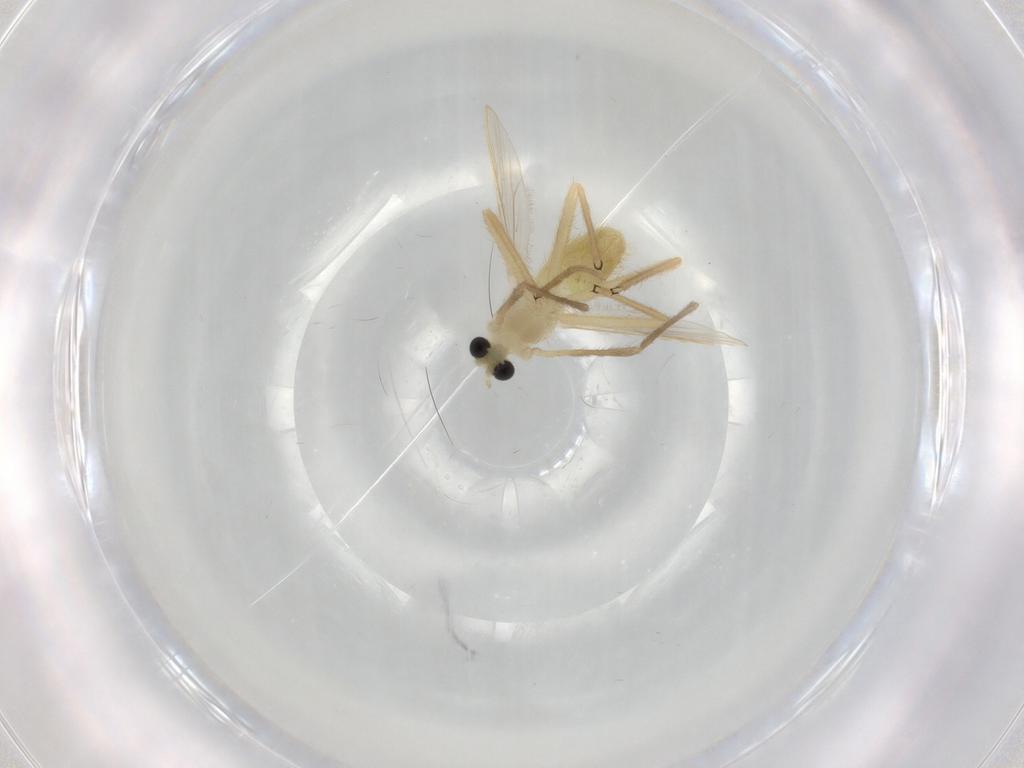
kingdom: Animalia
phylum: Arthropoda
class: Insecta
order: Diptera
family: Chironomidae
